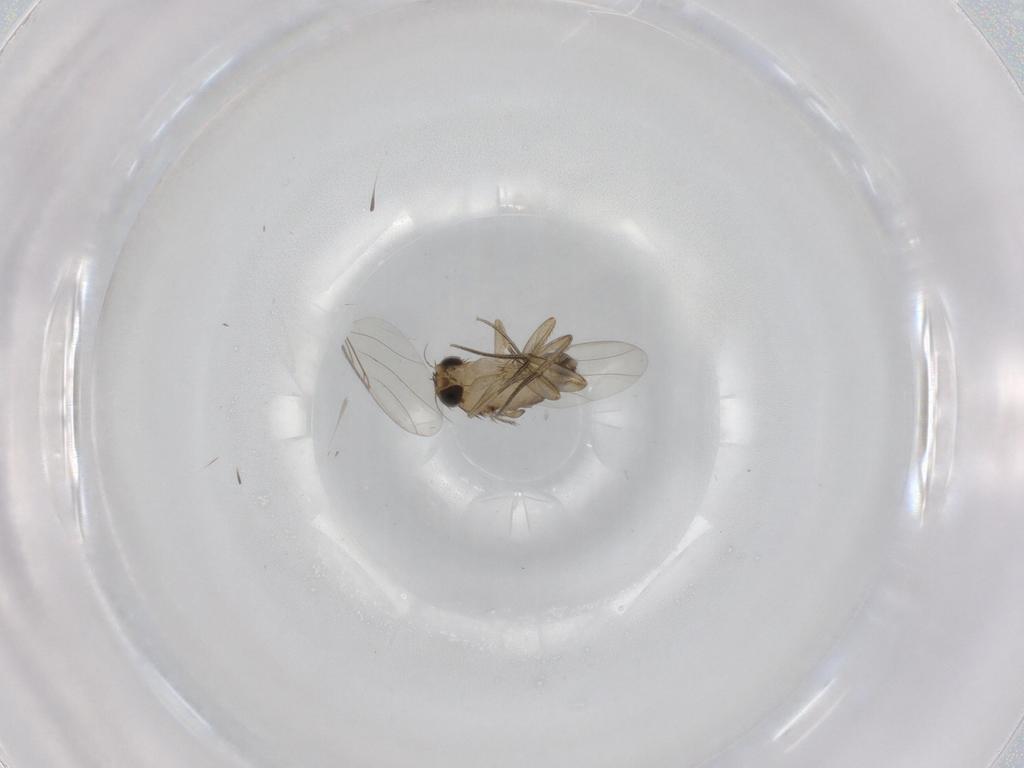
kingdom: Animalia
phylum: Arthropoda
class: Insecta
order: Diptera
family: Phoridae
